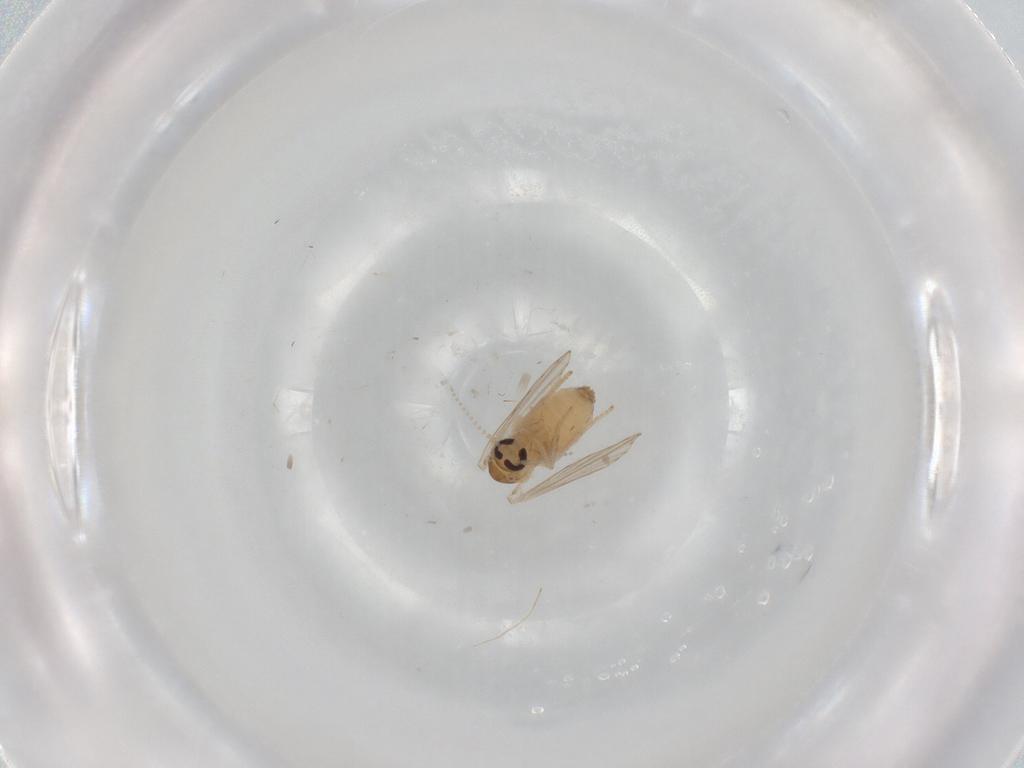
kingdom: Animalia
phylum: Arthropoda
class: Insecta
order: Diptera
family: Psychodidae
